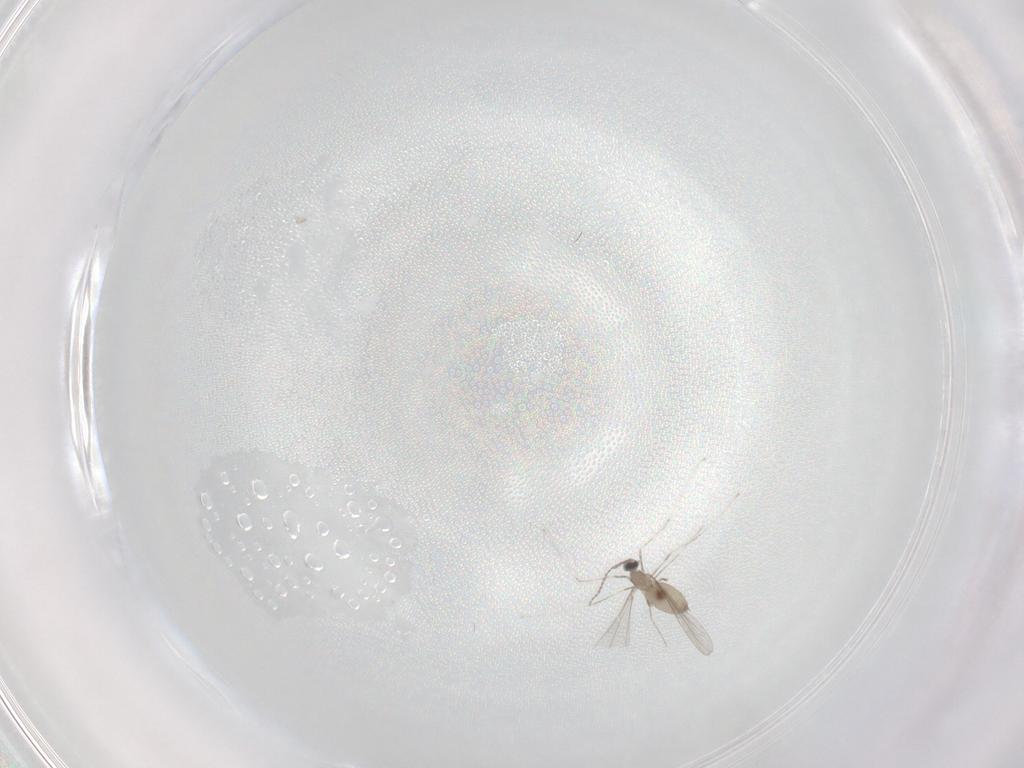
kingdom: Animalia
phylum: Arthropoda
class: Insecta
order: Diptera
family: Cecidomyiidae
